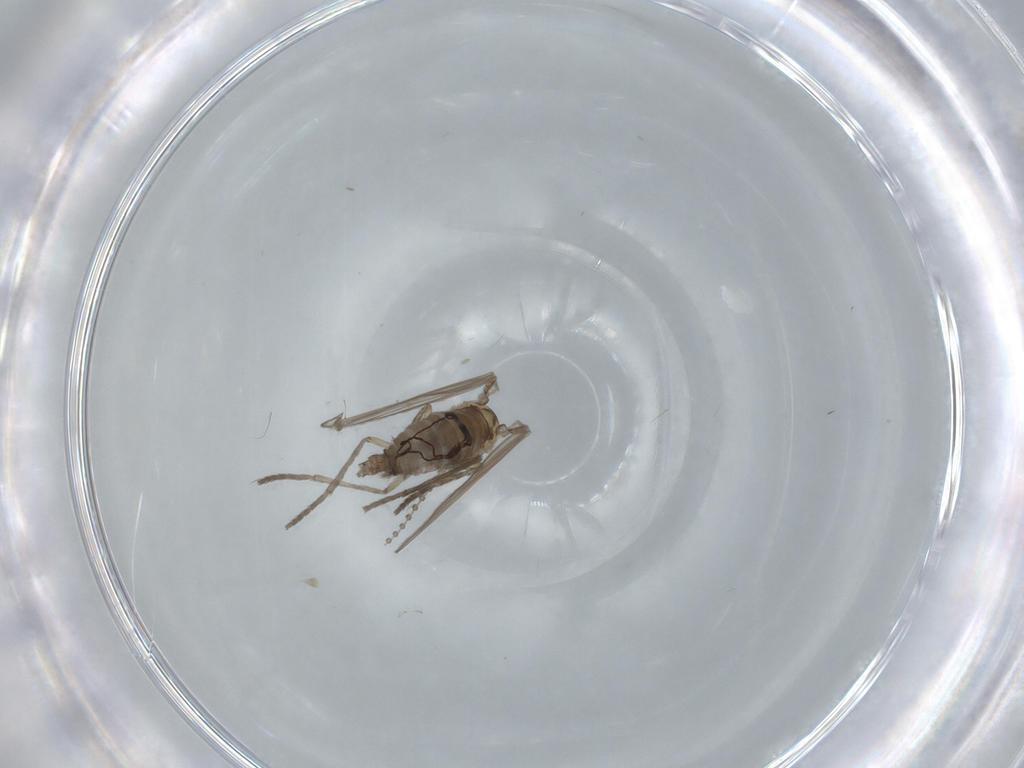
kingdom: Animalia
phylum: Arthropoda
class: Insecta
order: Diptera
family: Psychodidae
